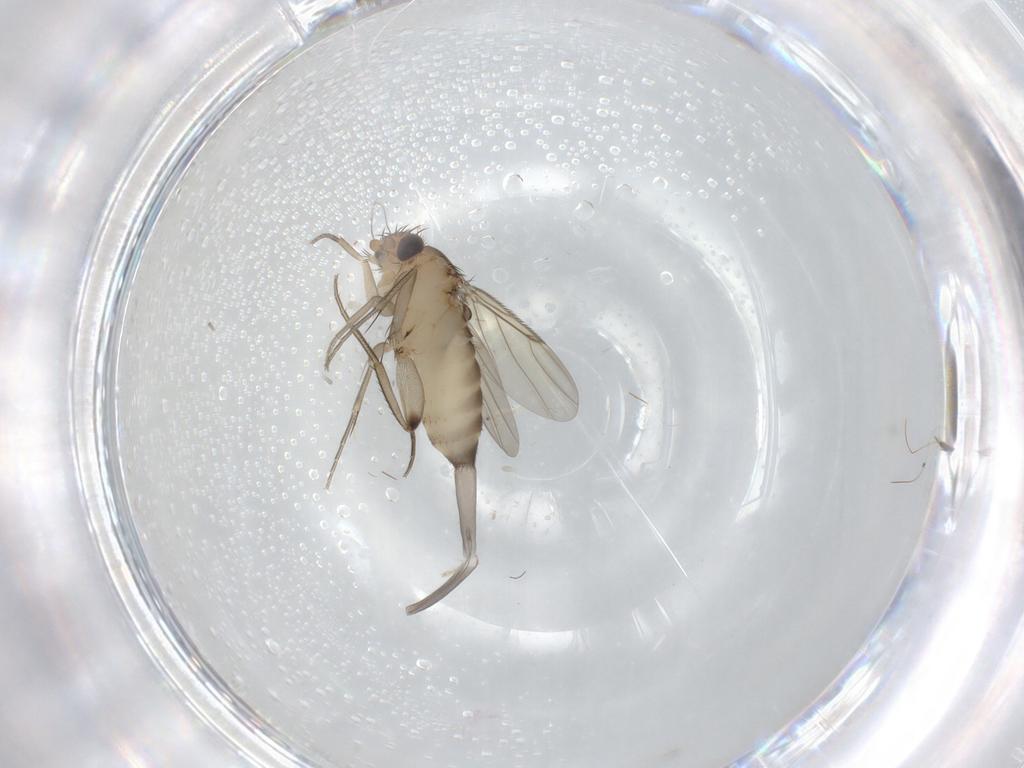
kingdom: Animalia
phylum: Arthropoda
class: Insecta
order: Diptera
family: Phoridae
